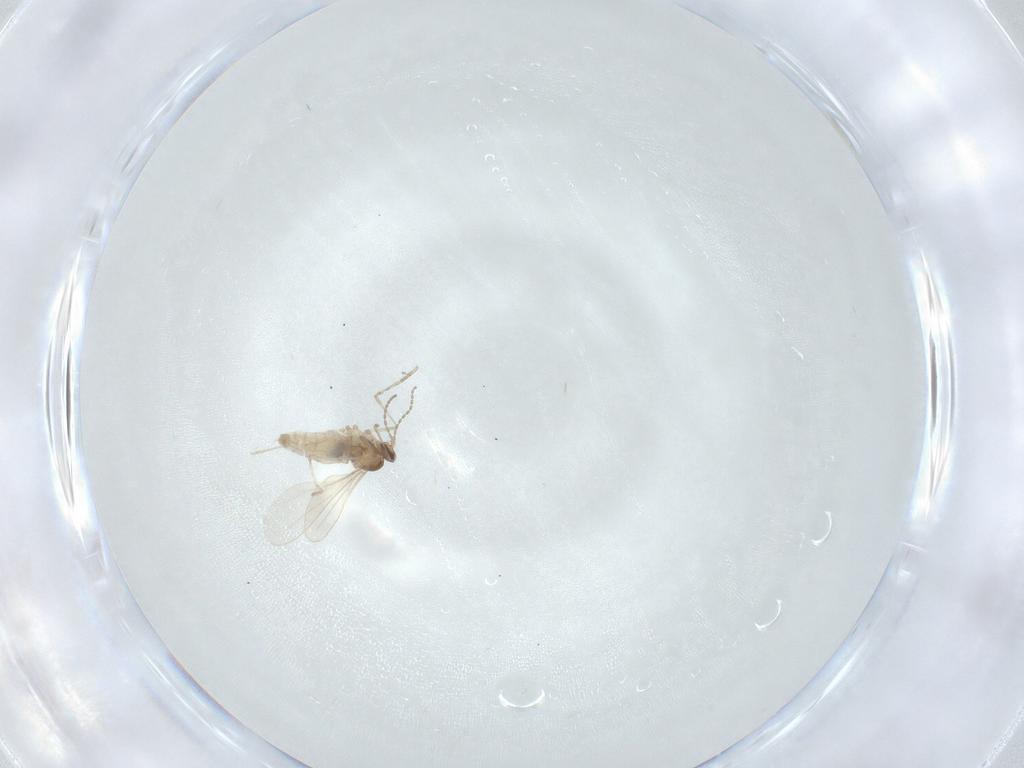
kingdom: Animalia
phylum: Arthropoda
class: Insecta
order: Diptera
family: Cecidomyiidae
